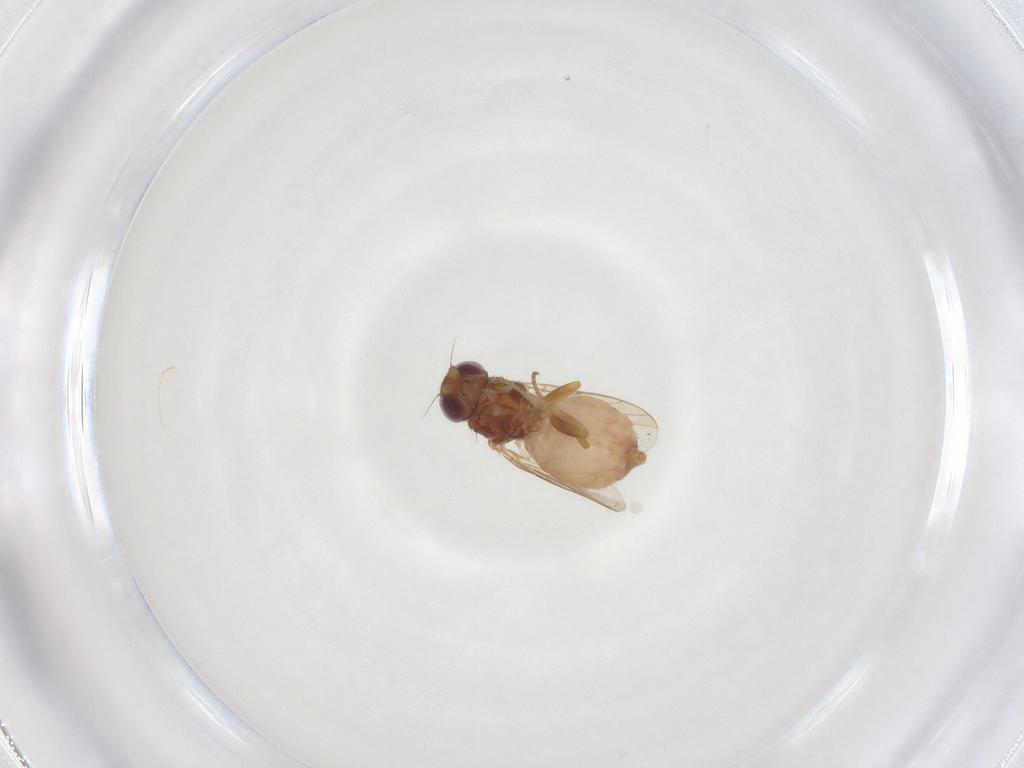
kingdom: Animalia
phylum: Arthropoda
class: Insecta
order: Diptera
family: Chloropidae
